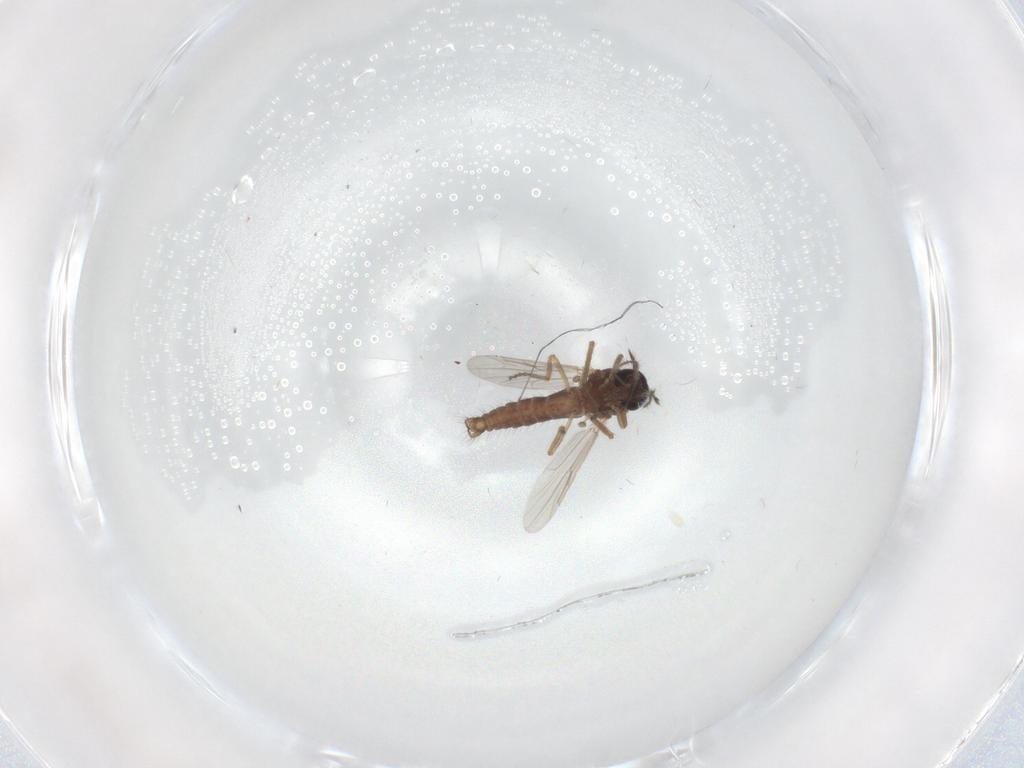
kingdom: Animalia
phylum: Arthropoda
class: Insecta
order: Diptera
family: Ceratopogonidae
